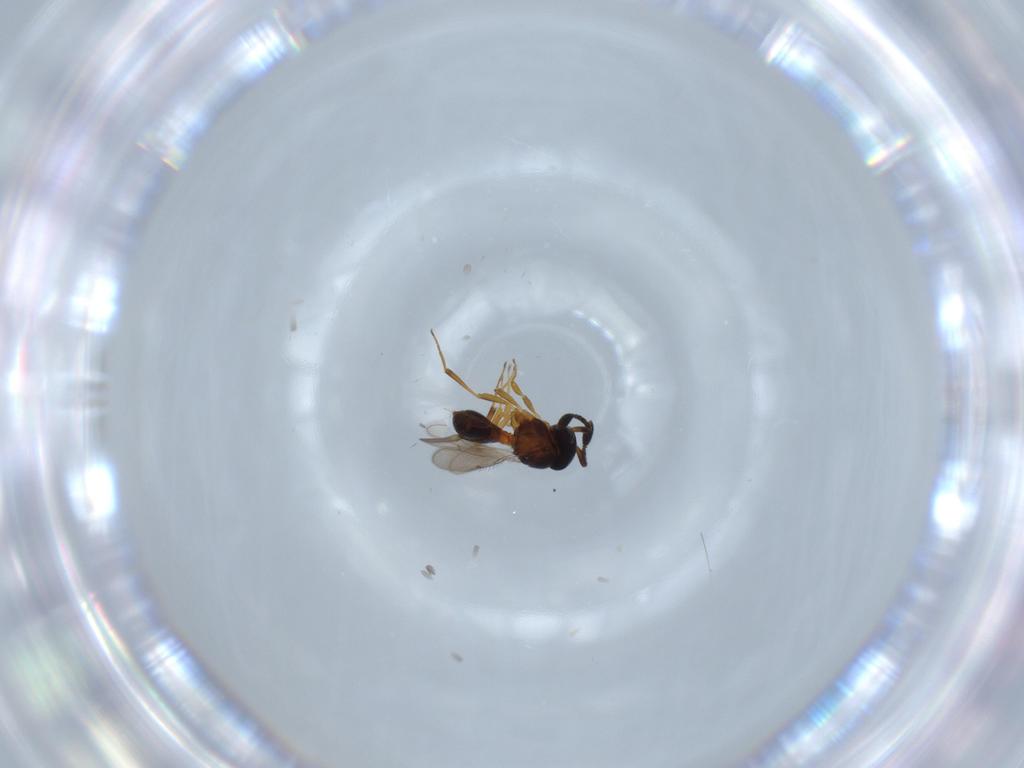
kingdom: Animalia
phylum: Arthropoda
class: Insecta
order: Hymenoptera
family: Scelionidae
